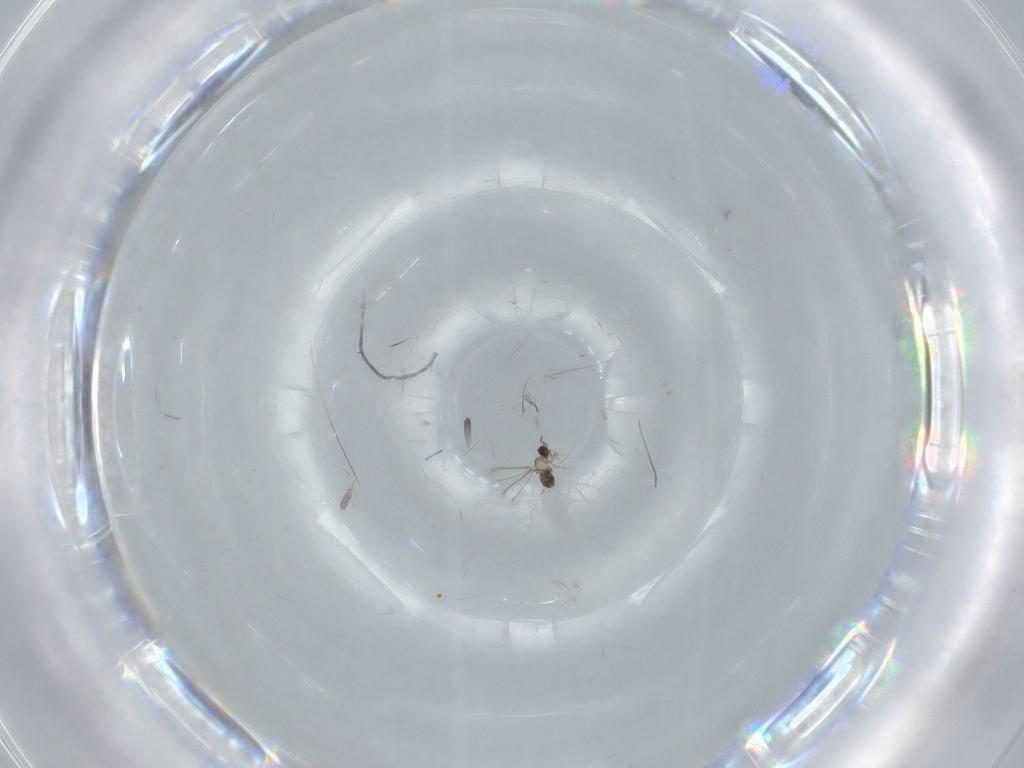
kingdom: Animalia
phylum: Arthropoda
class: Insecta
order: Hymenoptera
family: Mymaridae
